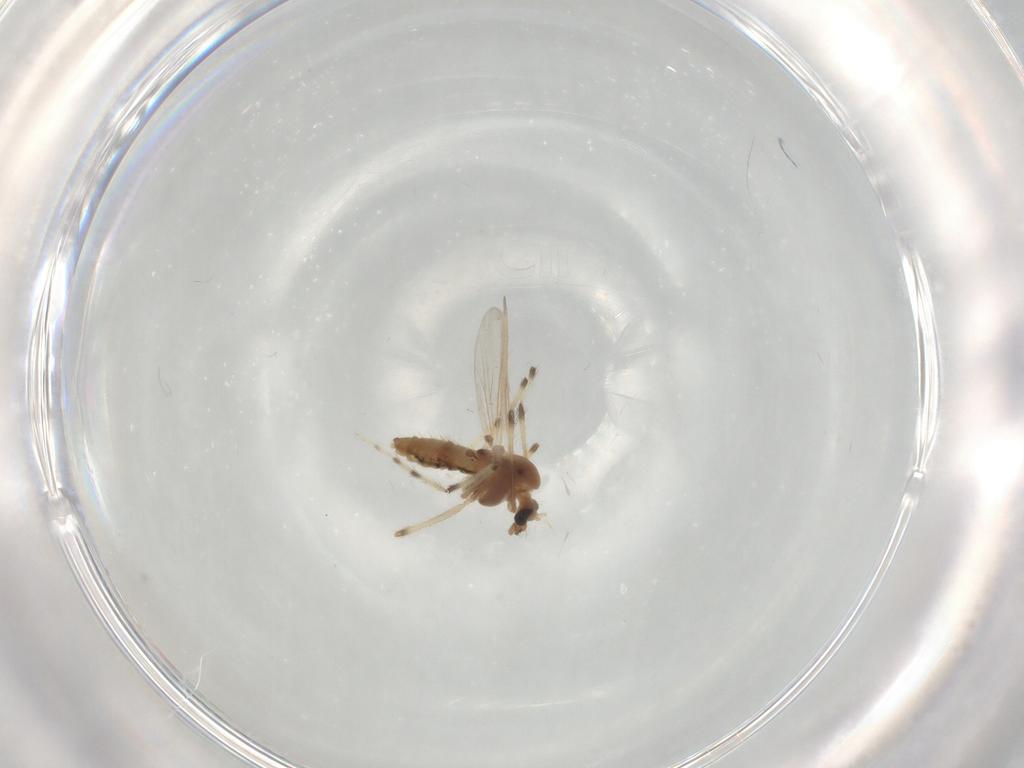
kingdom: Animalia
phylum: Arthropoda
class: Insecta
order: Diptera
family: Chironomidae
